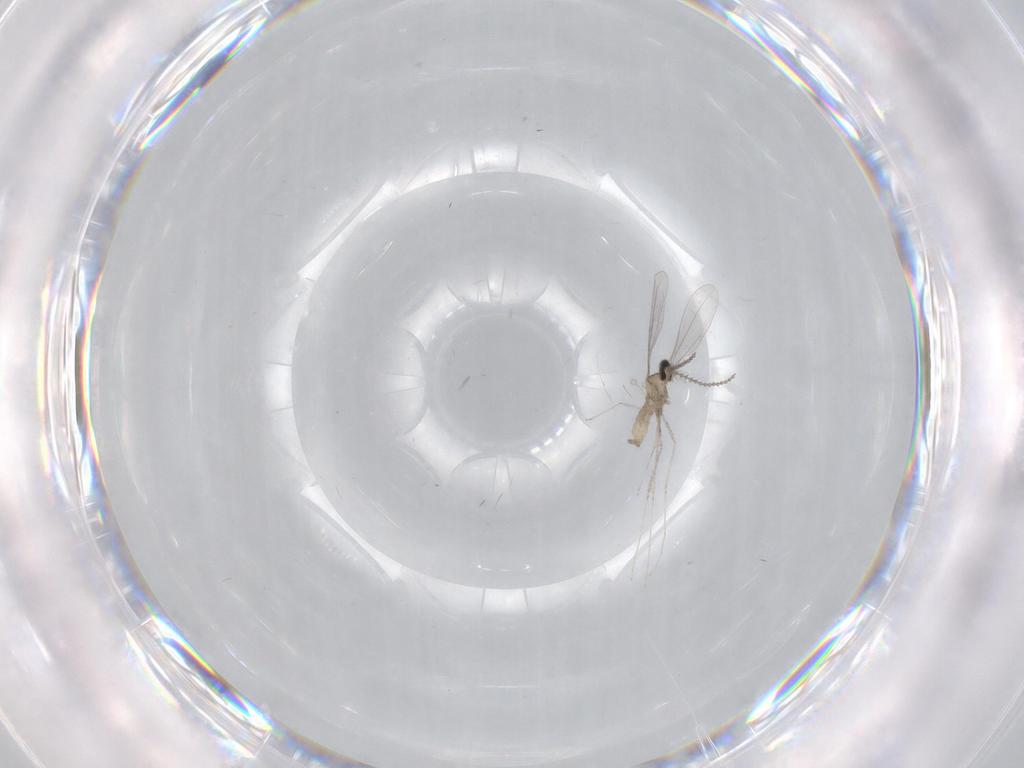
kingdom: Animalia
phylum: Arthropoda
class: Insecta
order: Diptera
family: Cecidomyiidae
